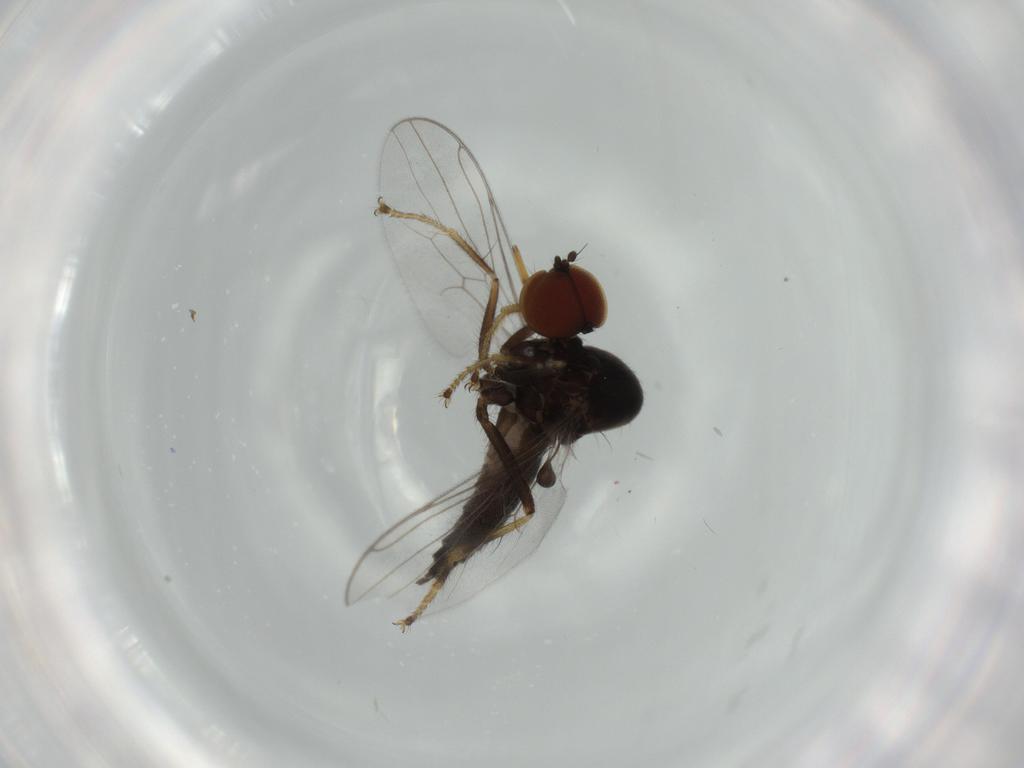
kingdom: Animalia
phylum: Arthropoda
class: Insecta
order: Diptera
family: Hybotidae
